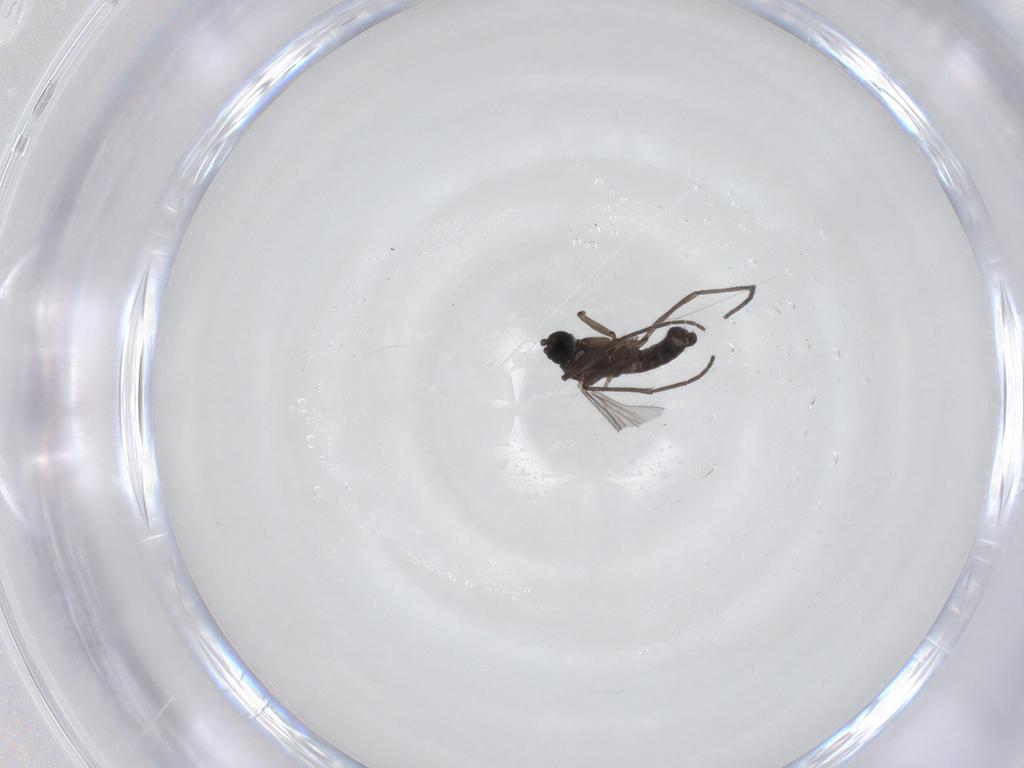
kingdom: Animalia
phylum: Arthropoda
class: Insecta
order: Diptera
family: Sciaridae
